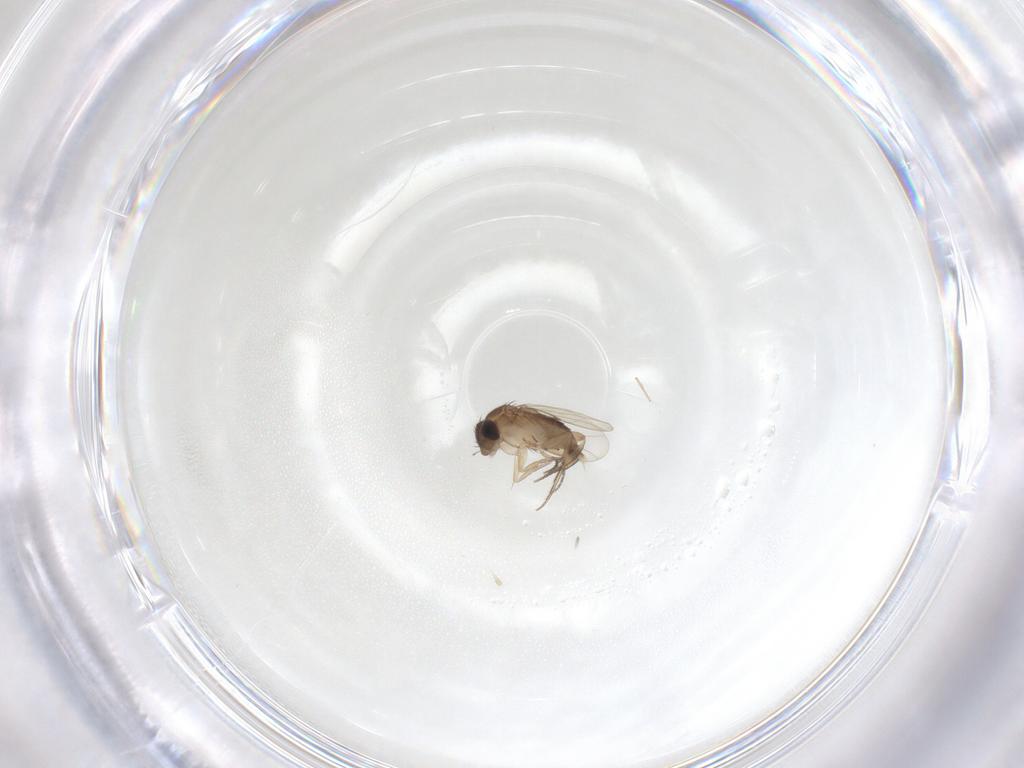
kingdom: Animalia
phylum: Arthropoda
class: Insecta
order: Diptera
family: Phoridae
